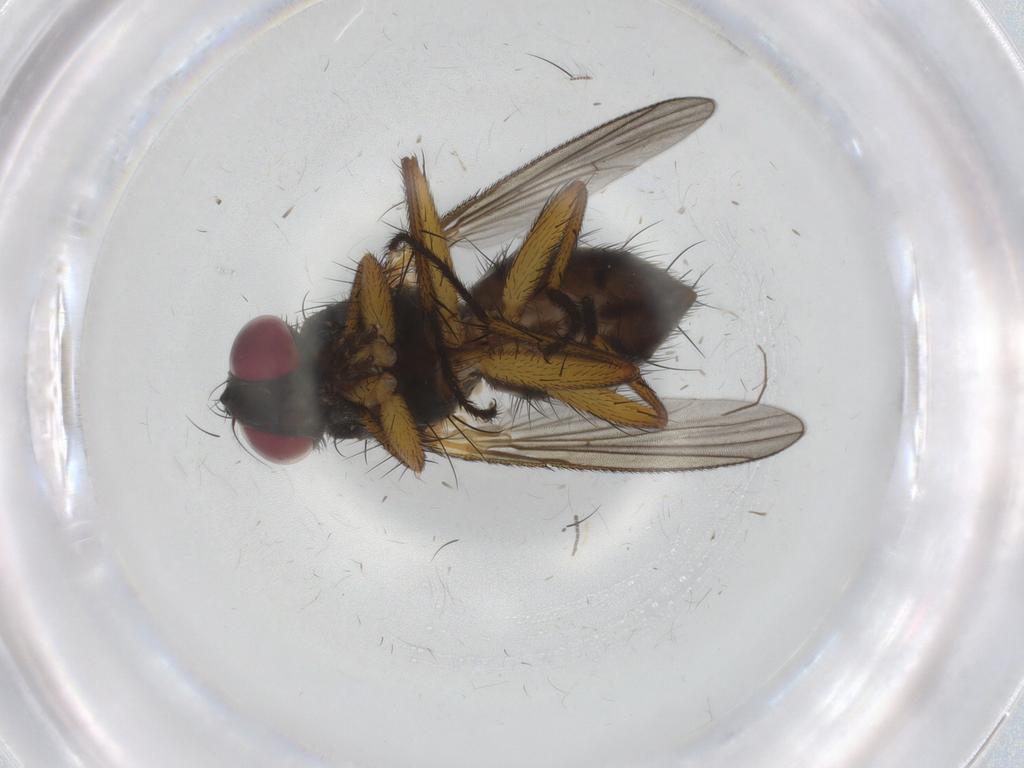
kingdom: Animalia
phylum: Arthropoda
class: Insecta
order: Diptera
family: Muscidae
